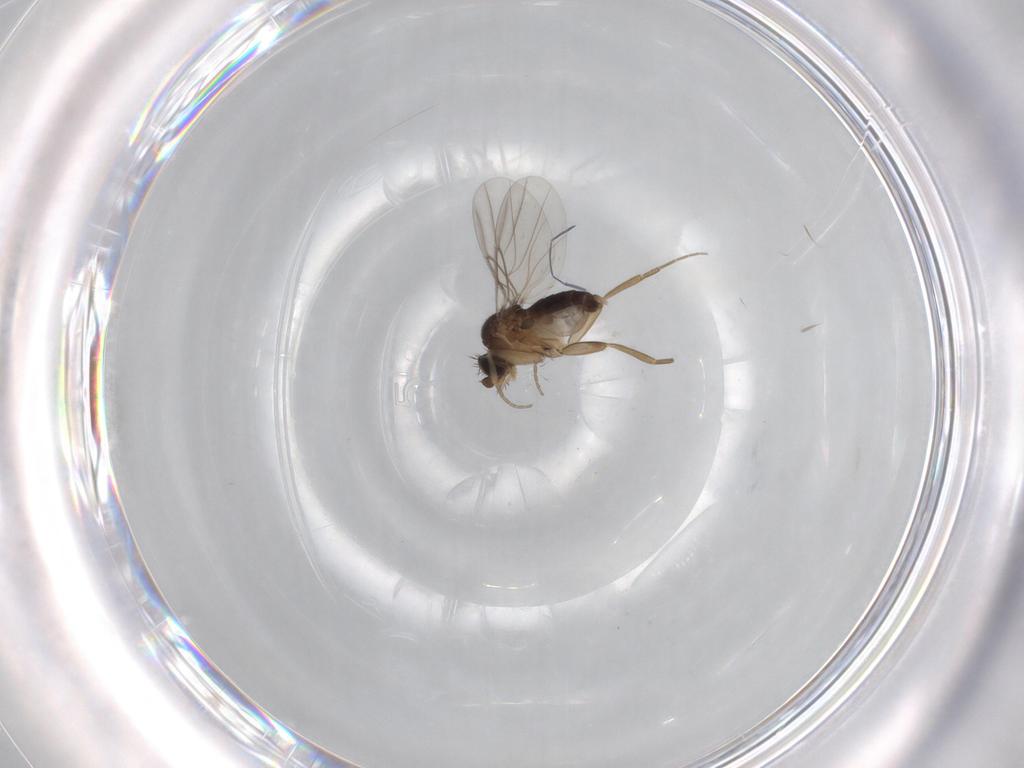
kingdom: Animalia
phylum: Arthropoda
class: Insecta
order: Diptera
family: Phoridae
